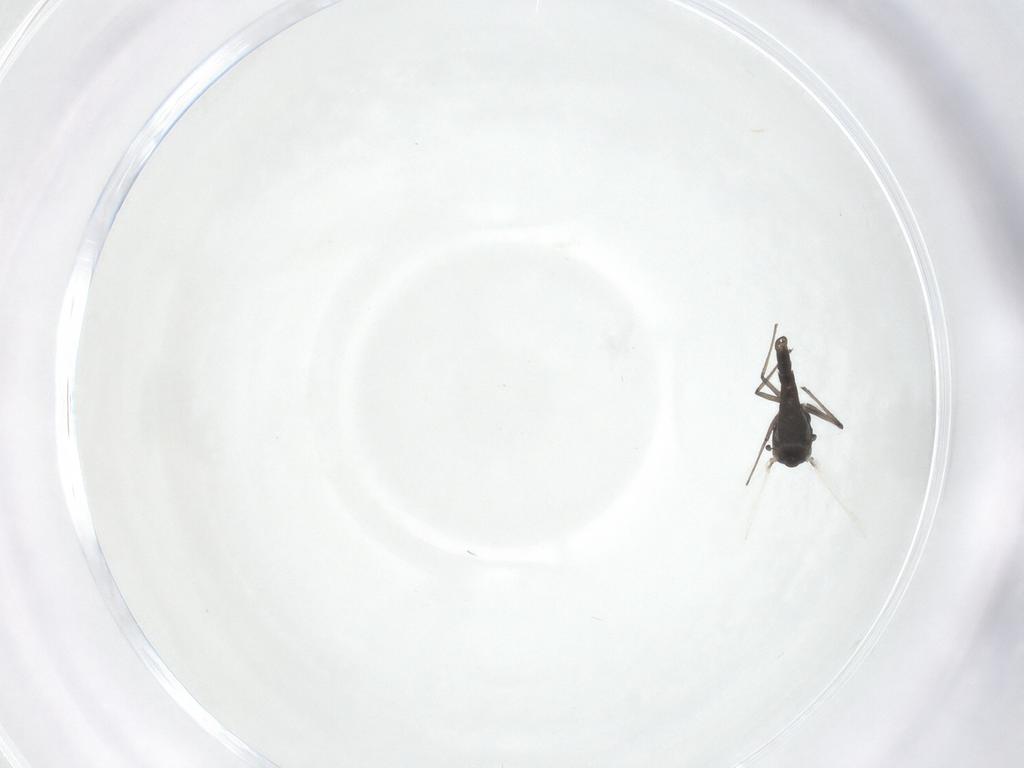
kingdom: Animalia
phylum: Arthropoda
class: Insecta
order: Diptera
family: Chironomidae
